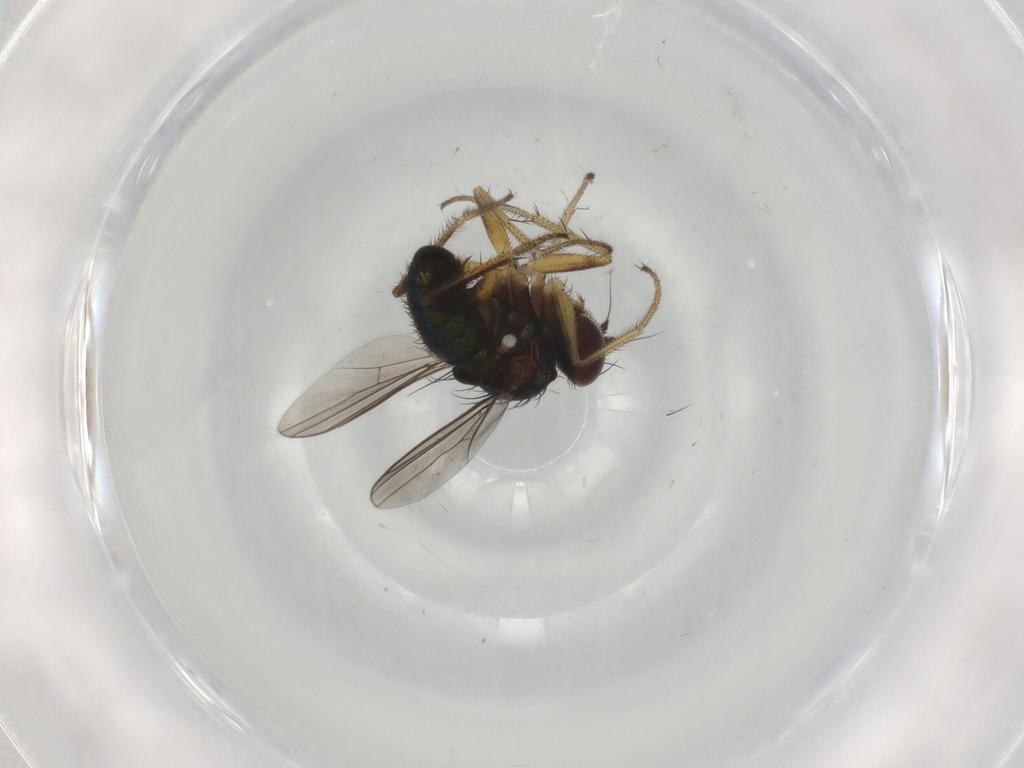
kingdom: Animalia
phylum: Arthropoda
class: Insecta
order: Diptera
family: Dolichopodidae
